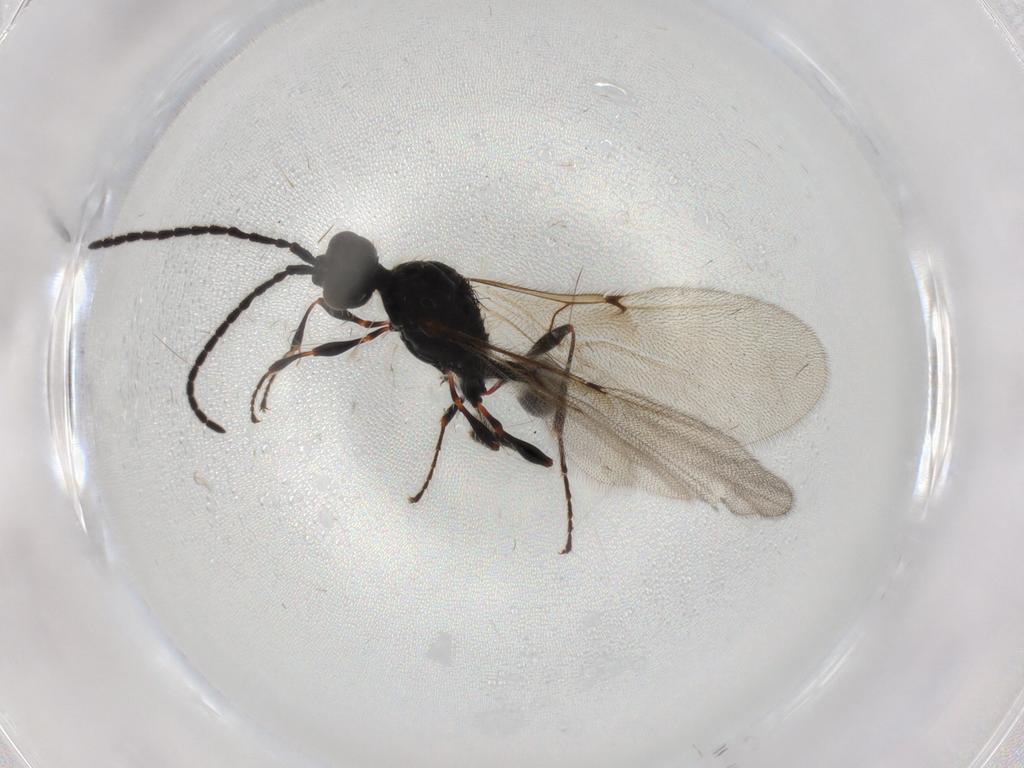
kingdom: Animalia
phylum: Arthropoda
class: Insecta
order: Hymenoptera
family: Diapriidae
